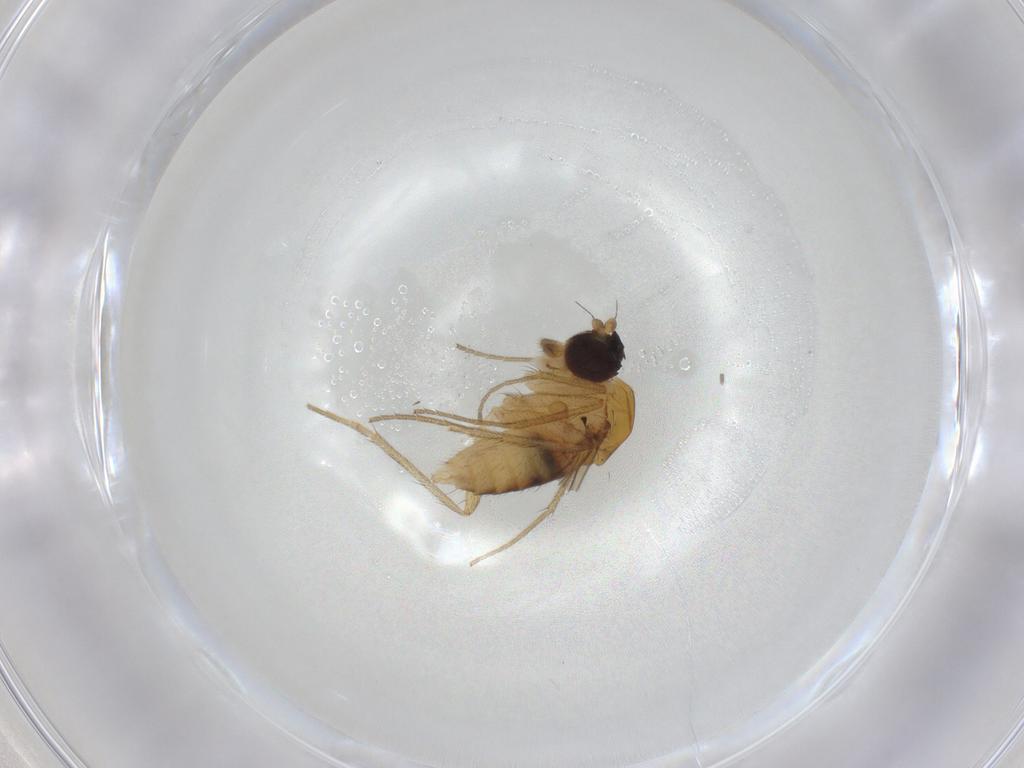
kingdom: Animalia
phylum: Arthropoda
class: Insecta
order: Diptera
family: Dolichopodidae
